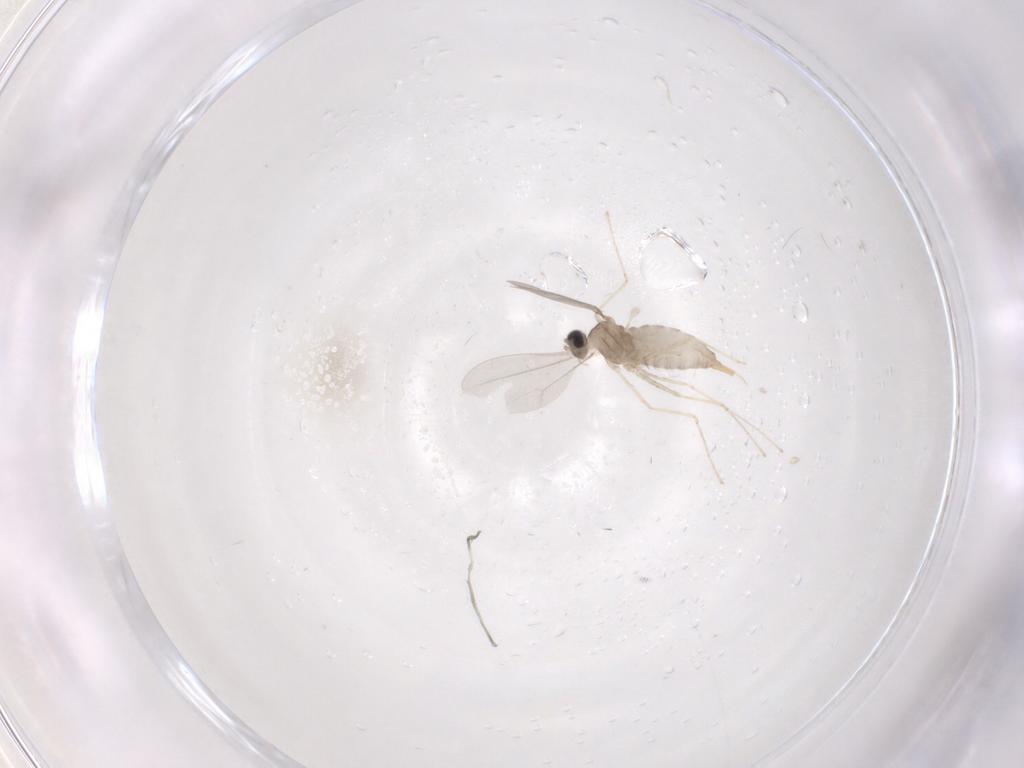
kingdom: Animalia
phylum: Arthropoda
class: Insecta
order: Diptera
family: Cecidomyiidae
